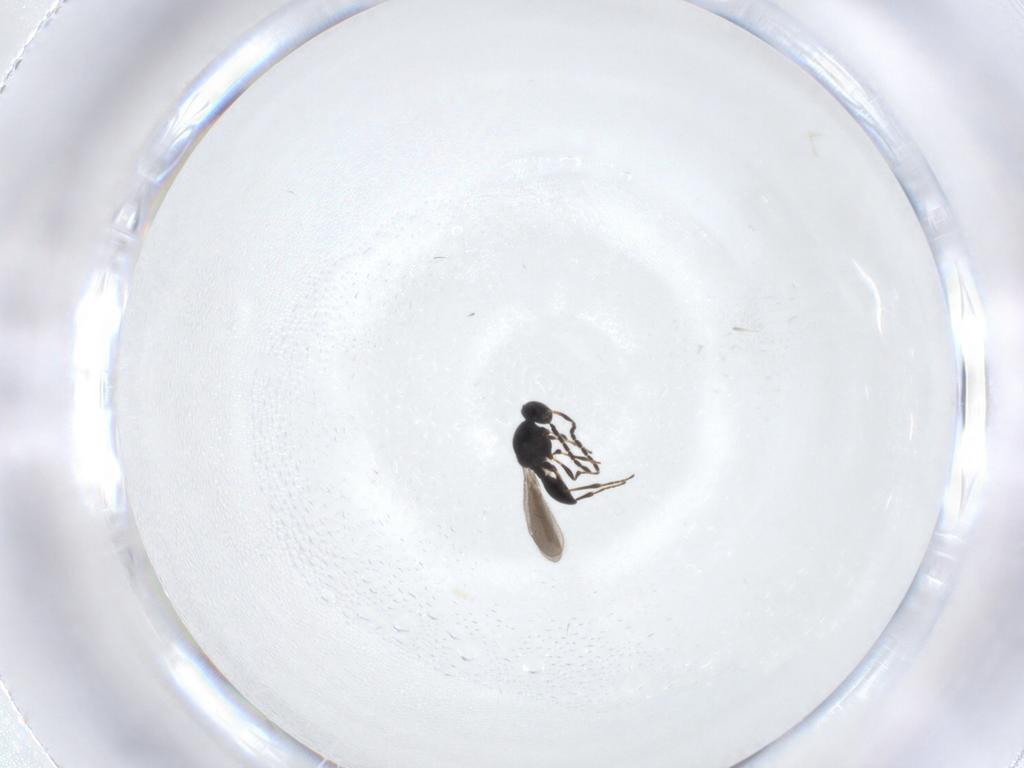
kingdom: Animalia
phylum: Arthropoda
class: Insecta
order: Hymenoptera
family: Platygastridae
